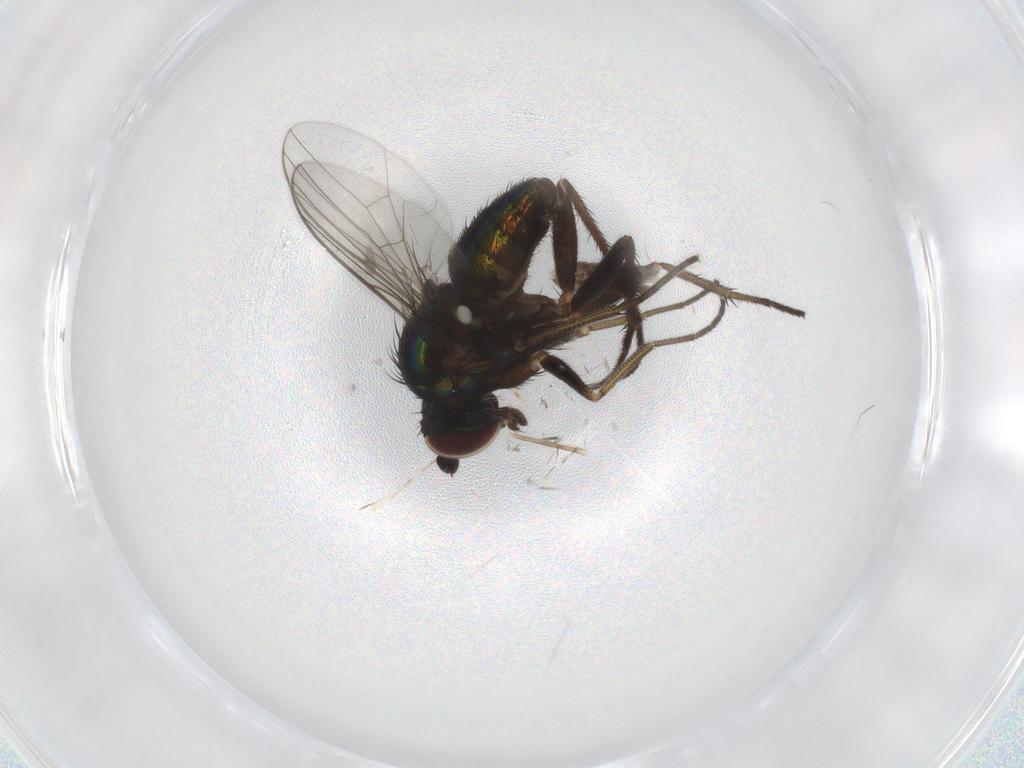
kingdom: Animalia
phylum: Arthropoda
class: Insecta
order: Diptera
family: Dolichopodidae
